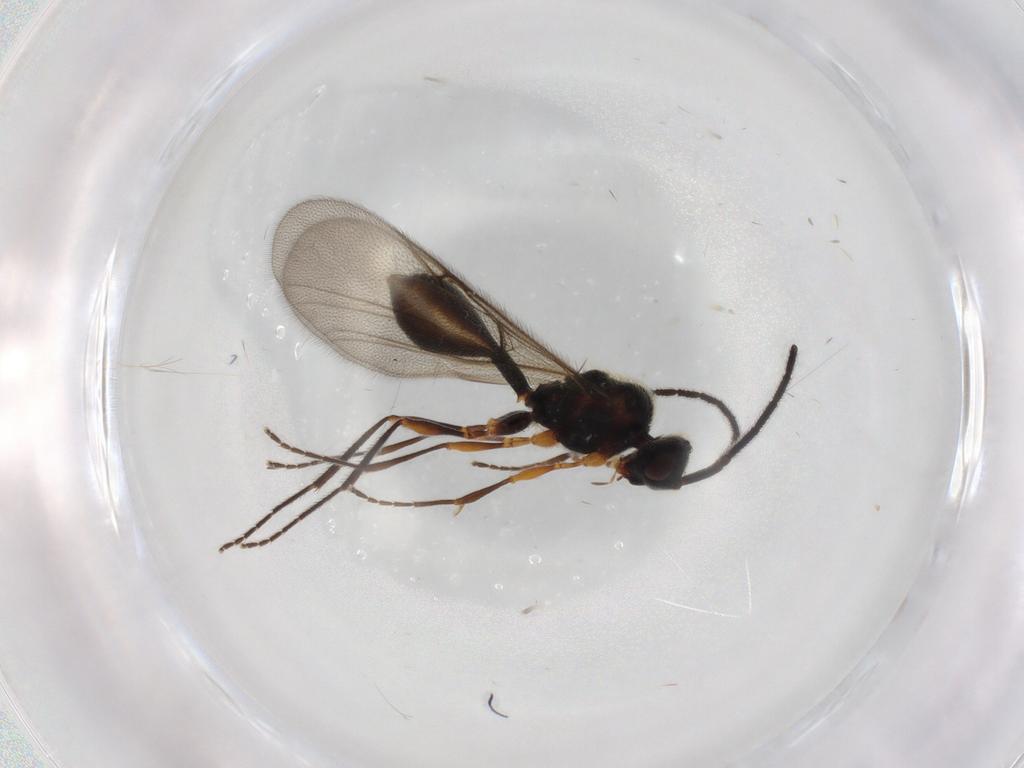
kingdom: Animalia
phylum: Arthropoda
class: Insecta
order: Hymenoptera
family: Diapriidae
